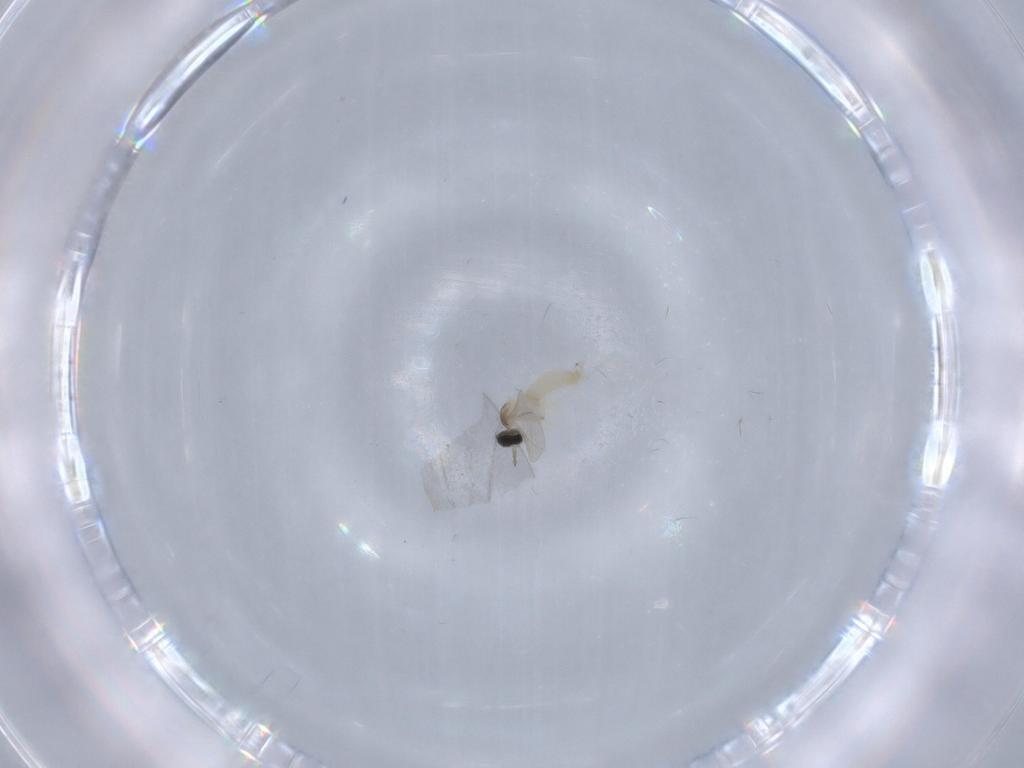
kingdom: Animalia
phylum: Arthropoda
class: Insecta
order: Diptera
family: Cecidomyiidae
